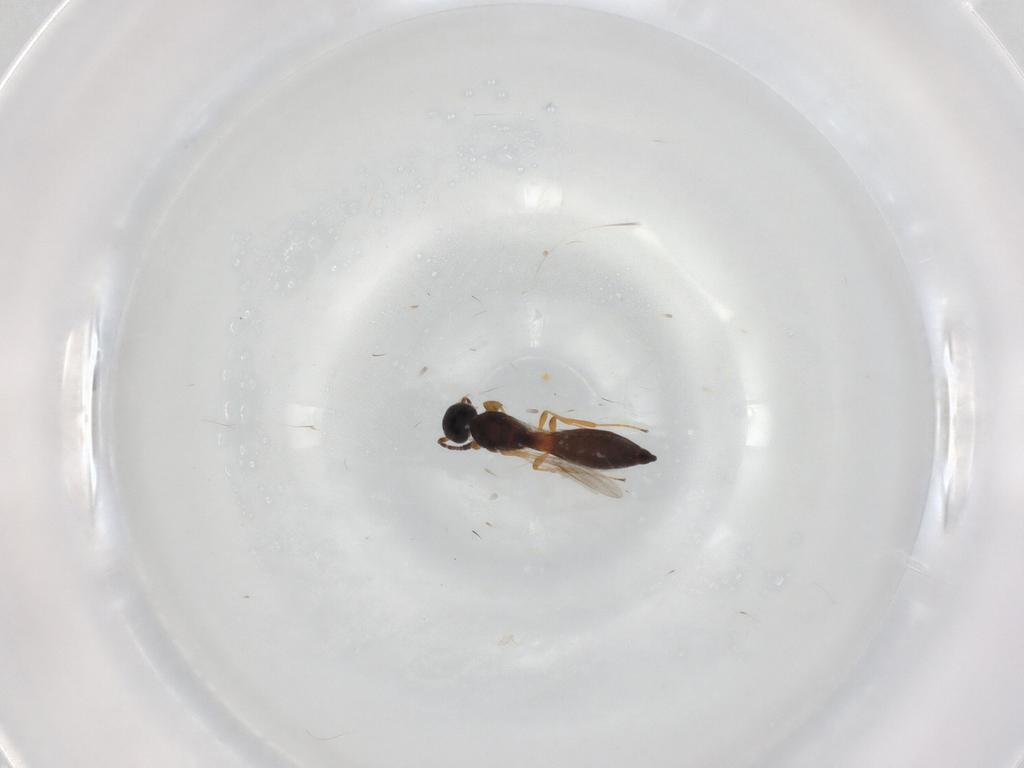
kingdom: Animalia
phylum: Arthropoda
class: Insecta
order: Hymenoptera
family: Scelionidae
